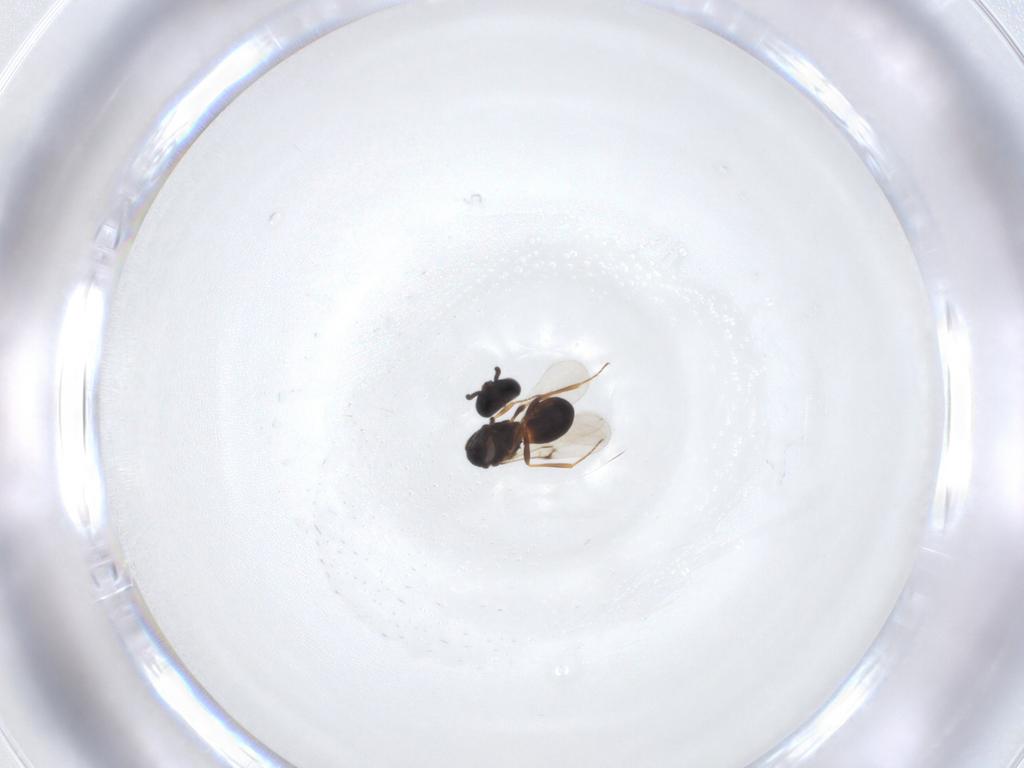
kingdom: Animalia
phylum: Arthropoda
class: Arachnida
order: Araneae
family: Pholcidae
